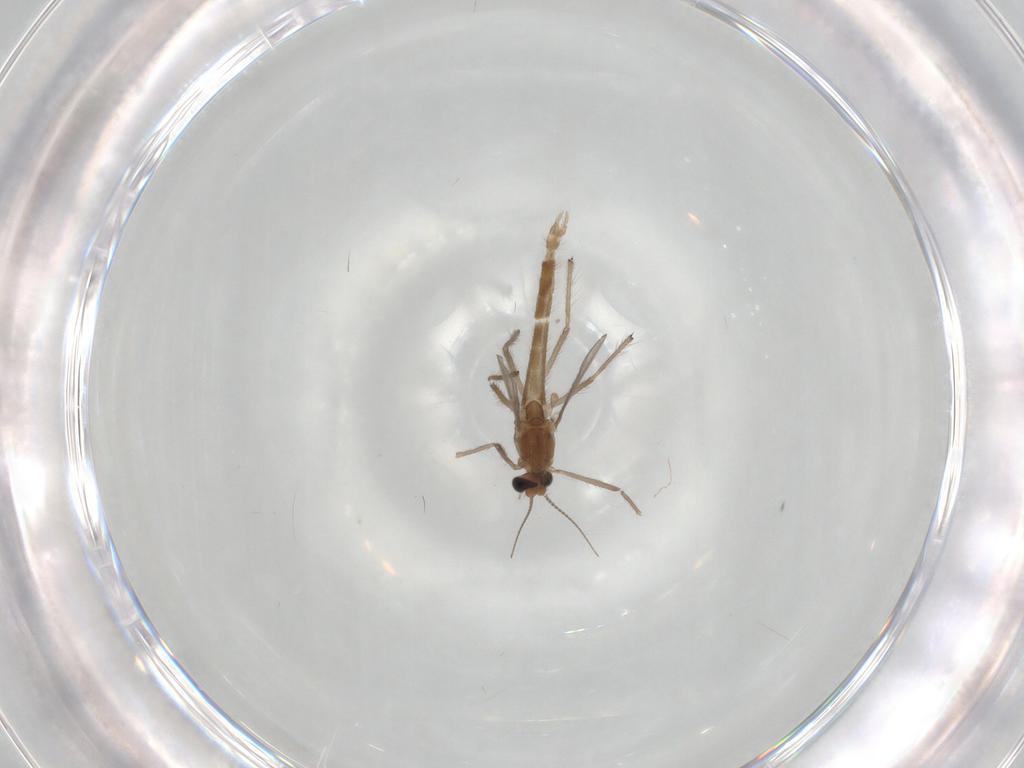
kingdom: Animalia
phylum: Arthropoda
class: Insecta
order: Diptera
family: Chironomidae
